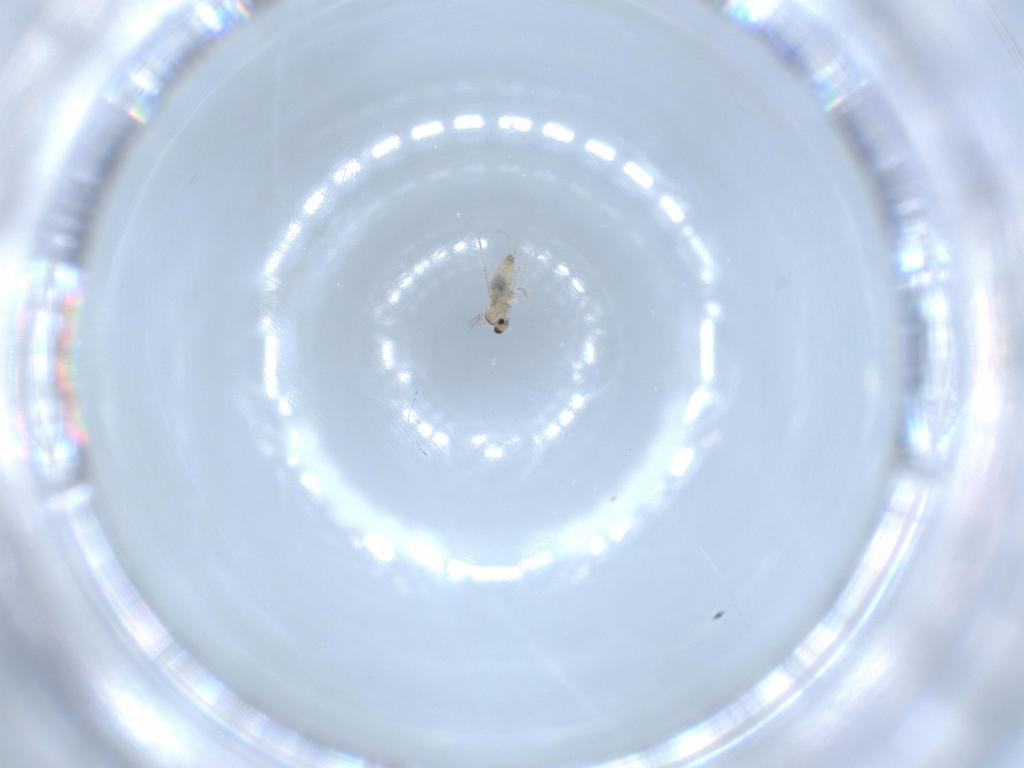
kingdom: Animalia
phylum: Arthropoda
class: Insecta
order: Diptera
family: Cecidomyiidae
